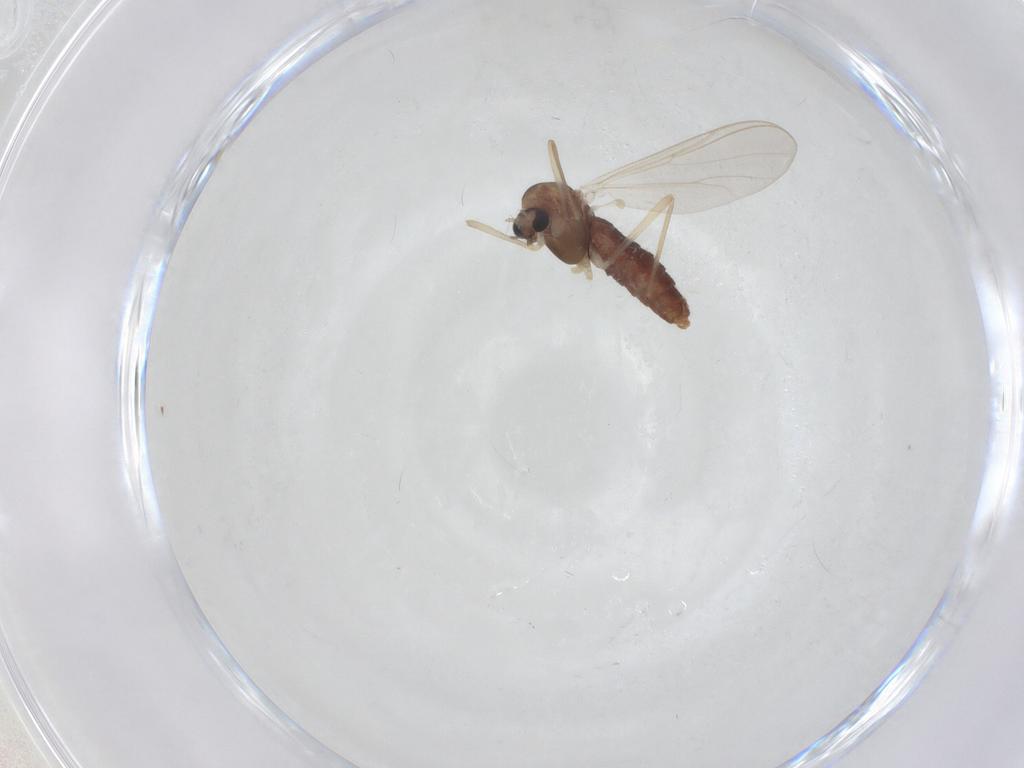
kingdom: Animalia
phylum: Arthropoda
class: Insecta
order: Diptera
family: Chironomidae
